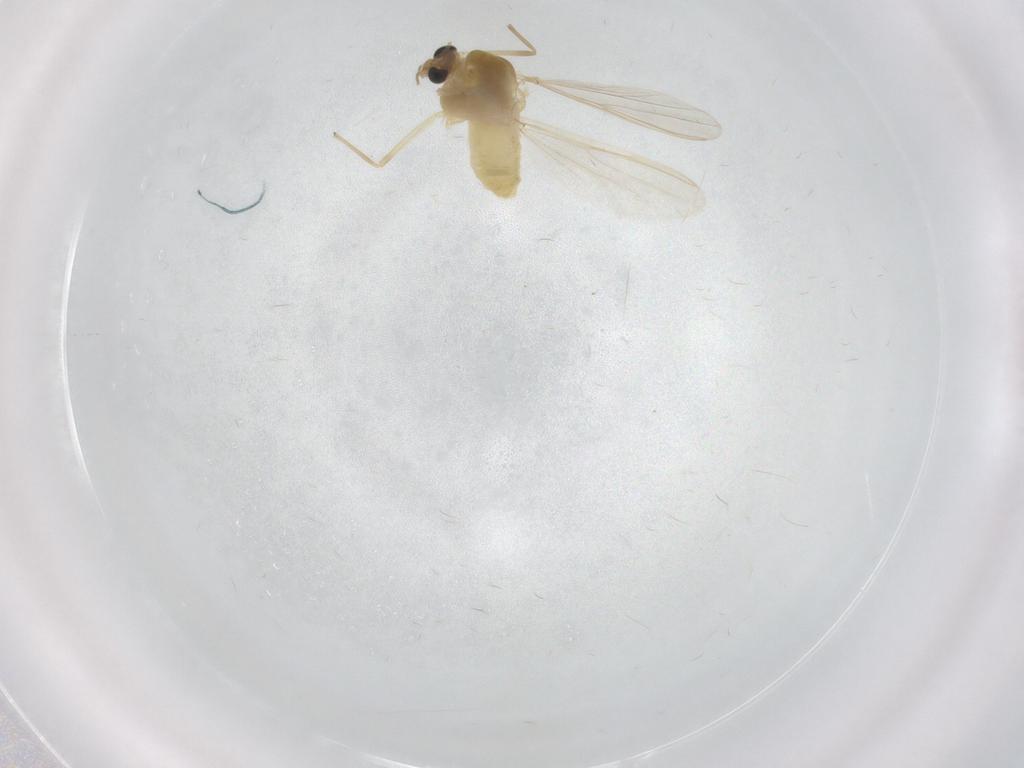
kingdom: Animalia
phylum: Arthropoda
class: Insecta
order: Diptera
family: Chironomidae
